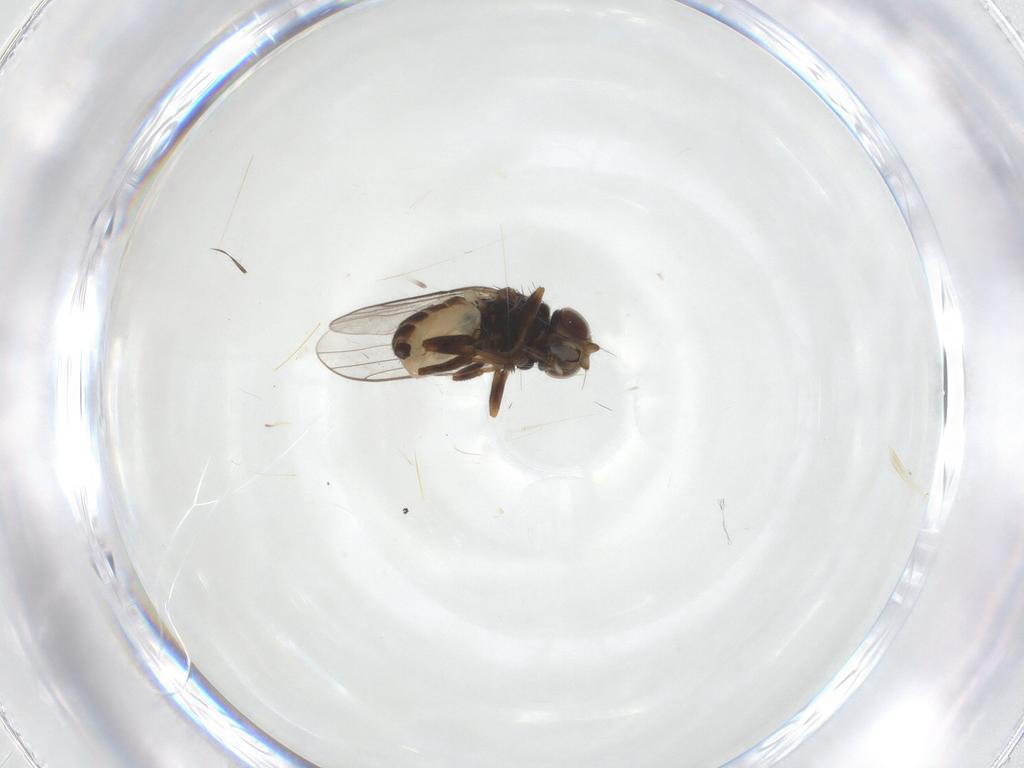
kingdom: Animalia
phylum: Arthropoda
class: Insecta
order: Diptera
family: Chloropidae
